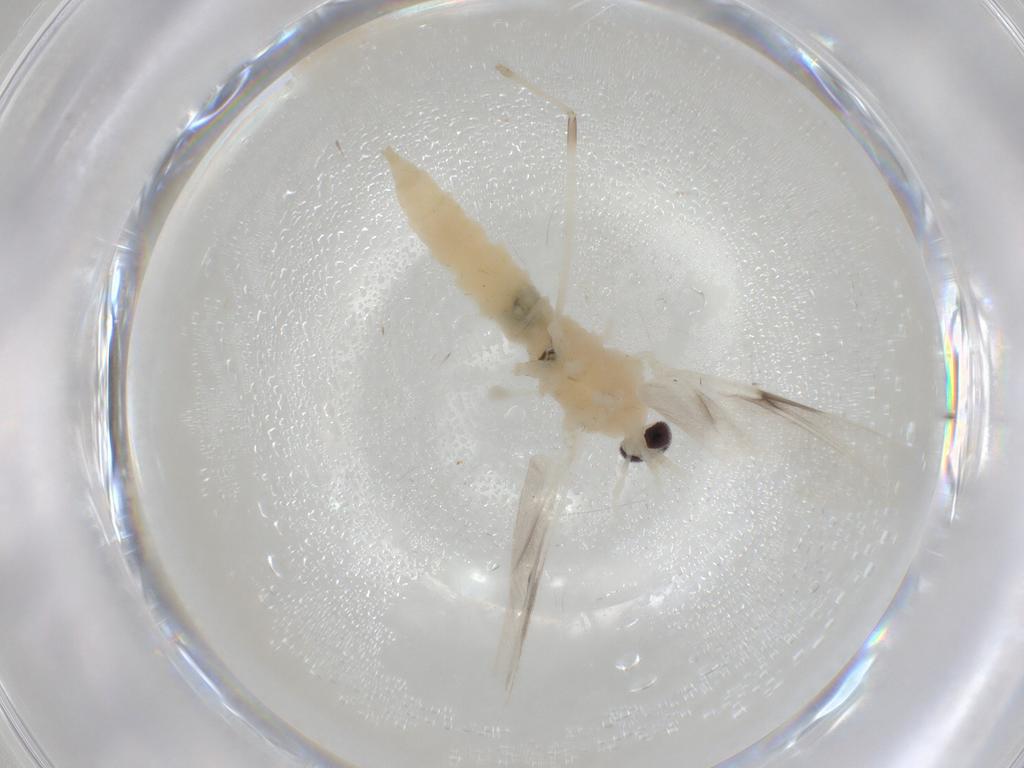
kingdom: Animalia
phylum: Arthropoda
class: Insecta
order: Diptera
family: Cecidomyiidae
